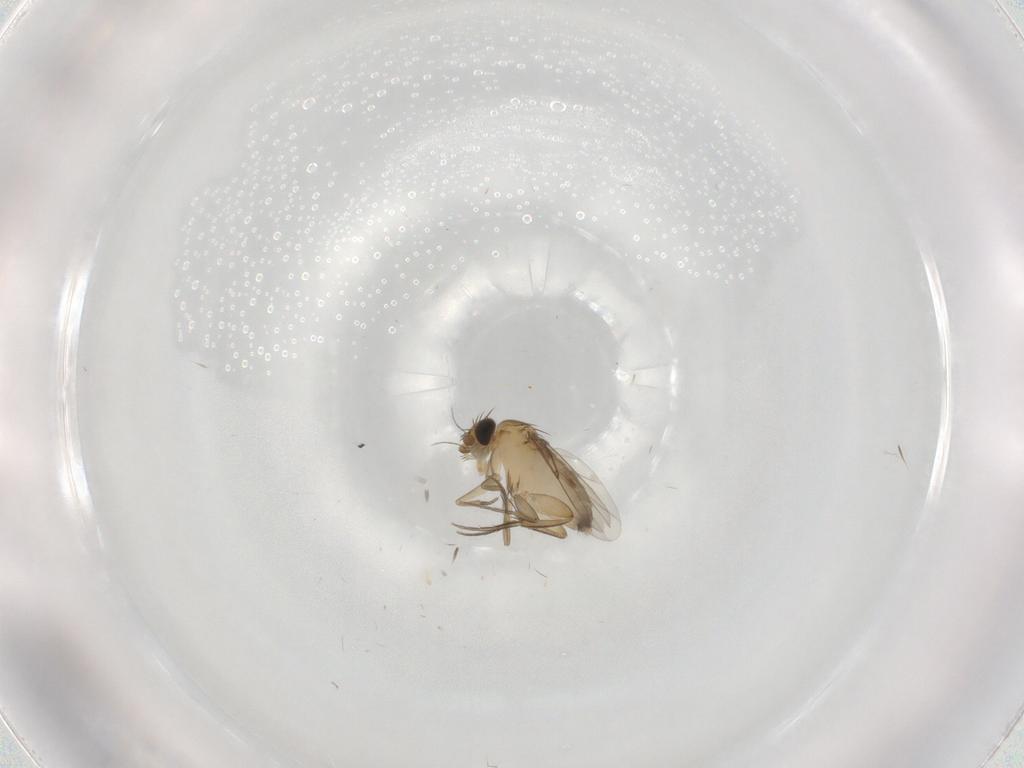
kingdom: Animalia
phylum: Arthropoda
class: Insecta
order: Diptera
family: Phoridae
